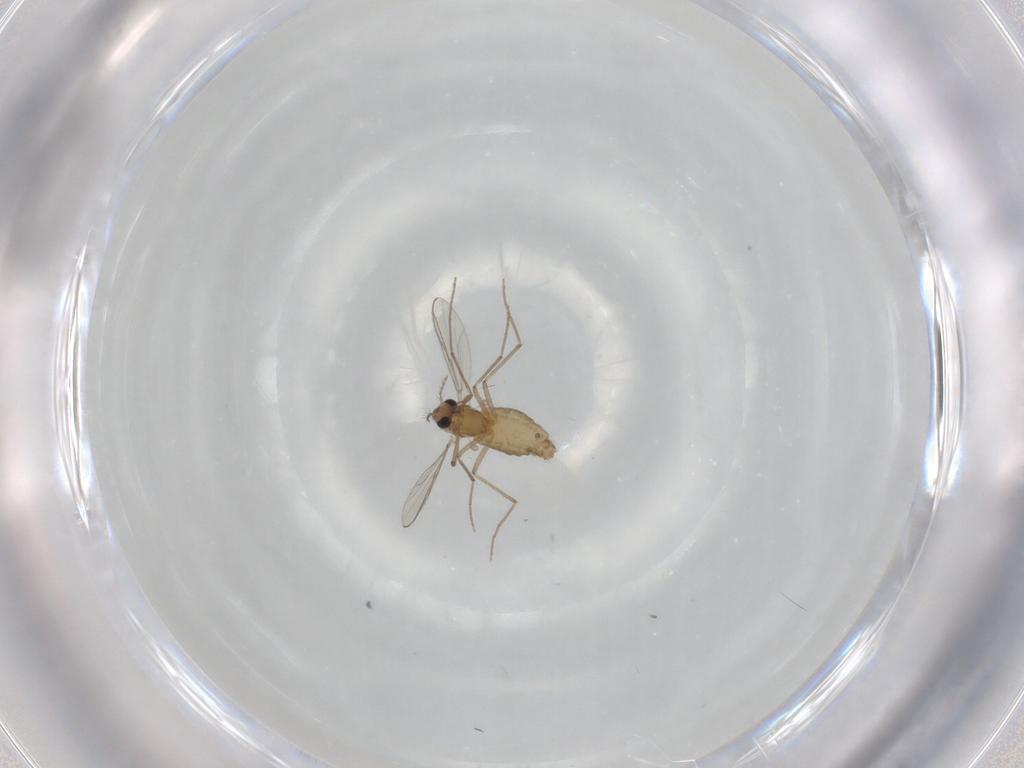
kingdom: Animalia
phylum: Arthropoda
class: Insecta
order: Diptera
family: Chironomidae
